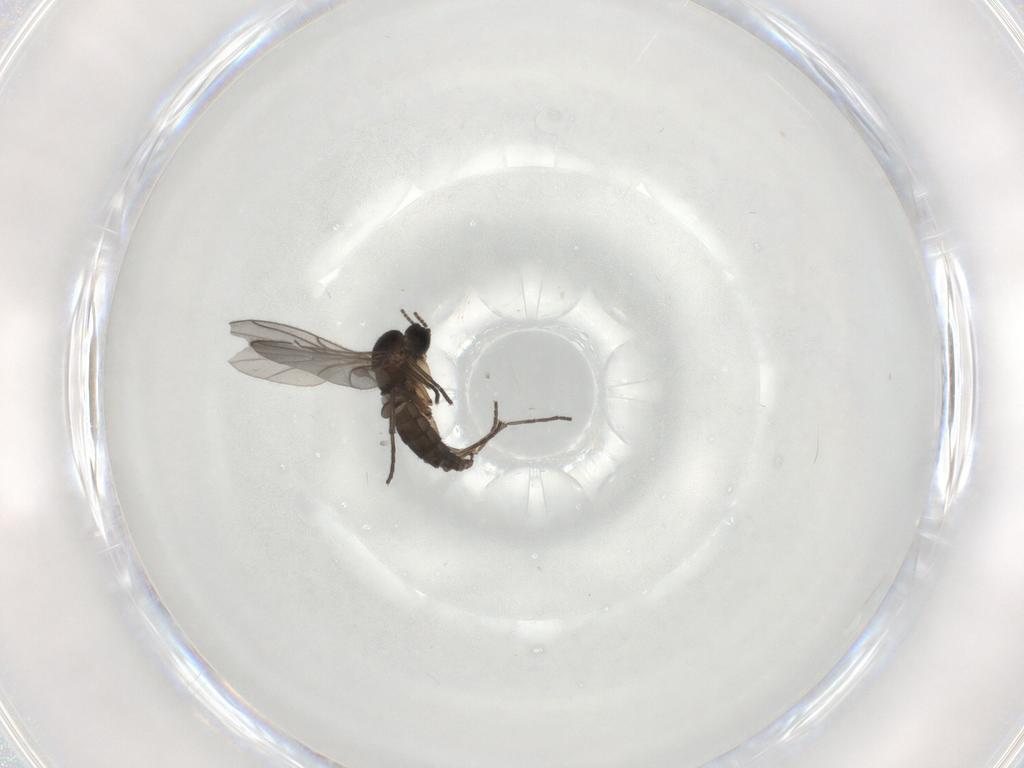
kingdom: Animalia
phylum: Arthropoda
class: Insecta
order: Diptera
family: Sciaridae
